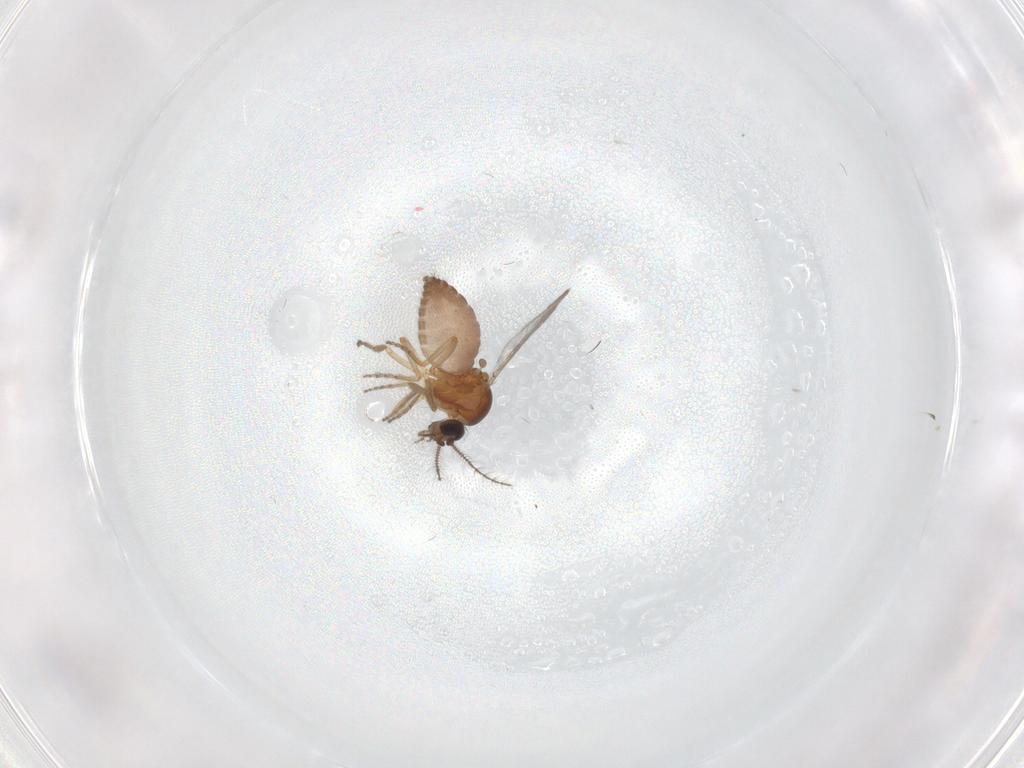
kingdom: Animalia
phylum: Arthropoda
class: Insecta
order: Diptera
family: Ceratopogonidae
